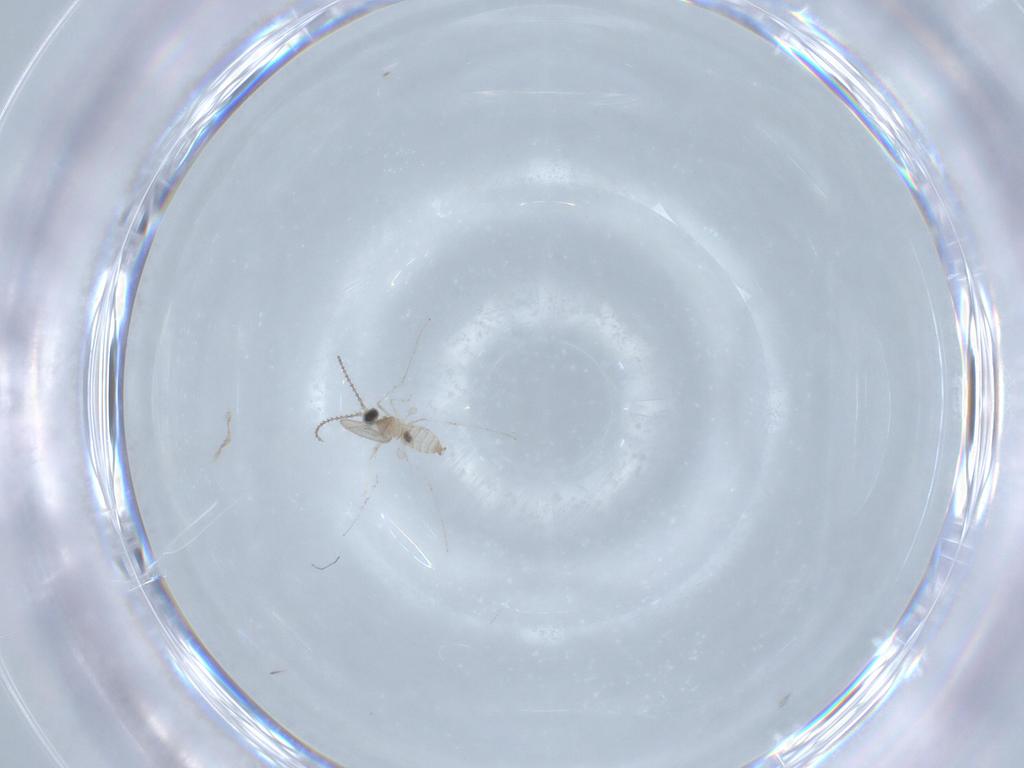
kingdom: Animalia
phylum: Arthropoda
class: Insecta
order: Diptera
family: Cecidomyiidae
